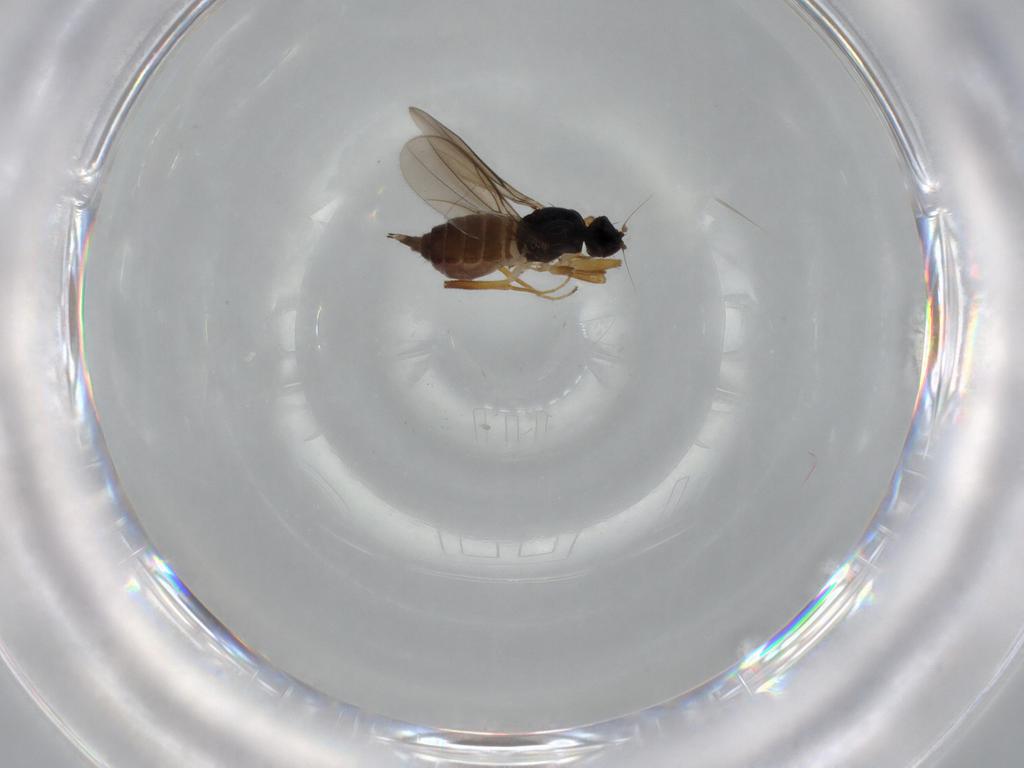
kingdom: Animalia
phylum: Arthropoda
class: Insecta
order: Diptera
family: Hybotidae
